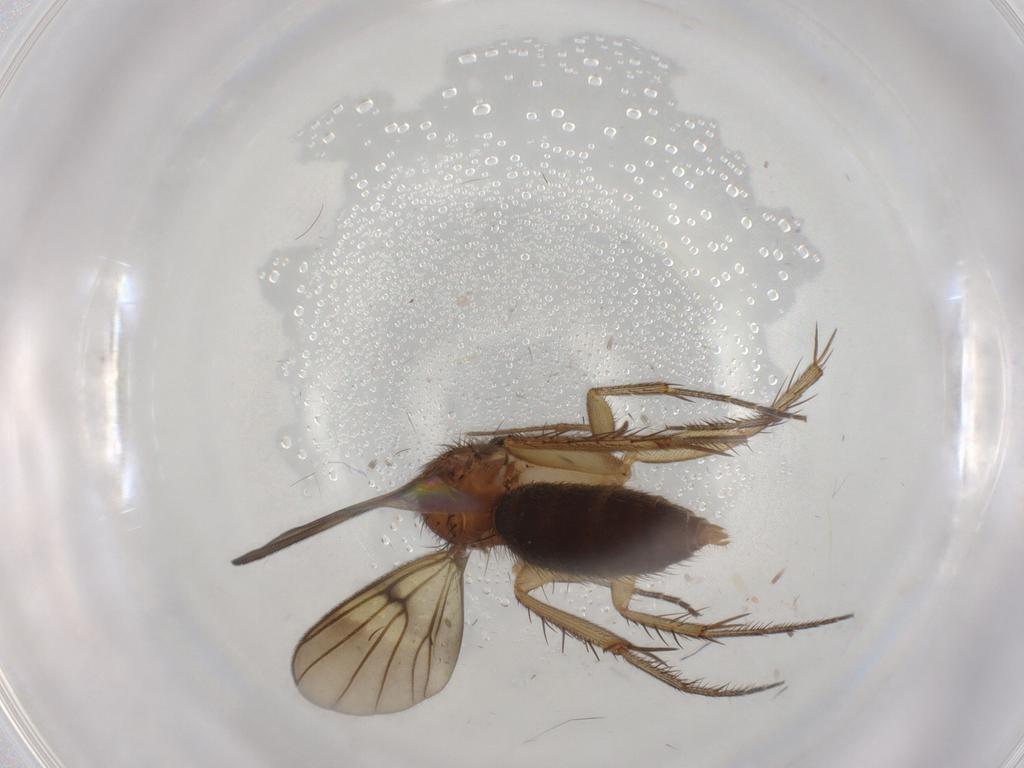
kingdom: Animalia
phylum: Arthropoda
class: Insecta
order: Diptera
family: Cecidomyiidae
